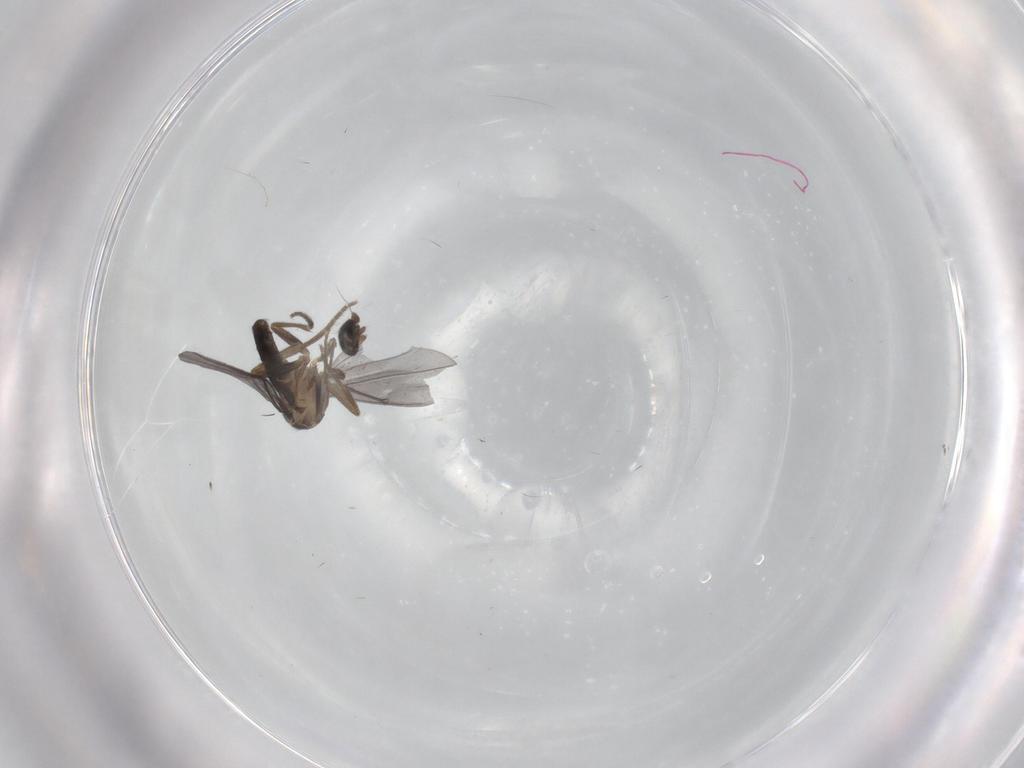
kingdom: Animalia
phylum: Arthropoda
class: Insecta
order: Diptera
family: Phoridae
